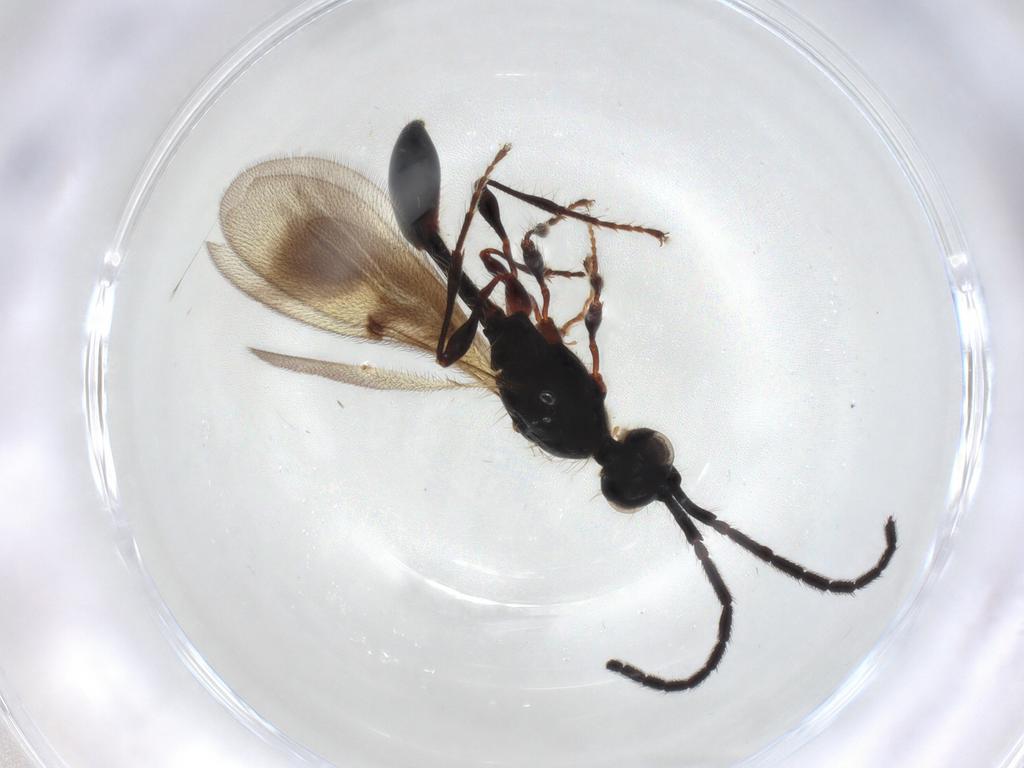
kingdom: Animalia
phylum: Arthropoda
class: Insecta
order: Hymenoptera
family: Diapriidae
